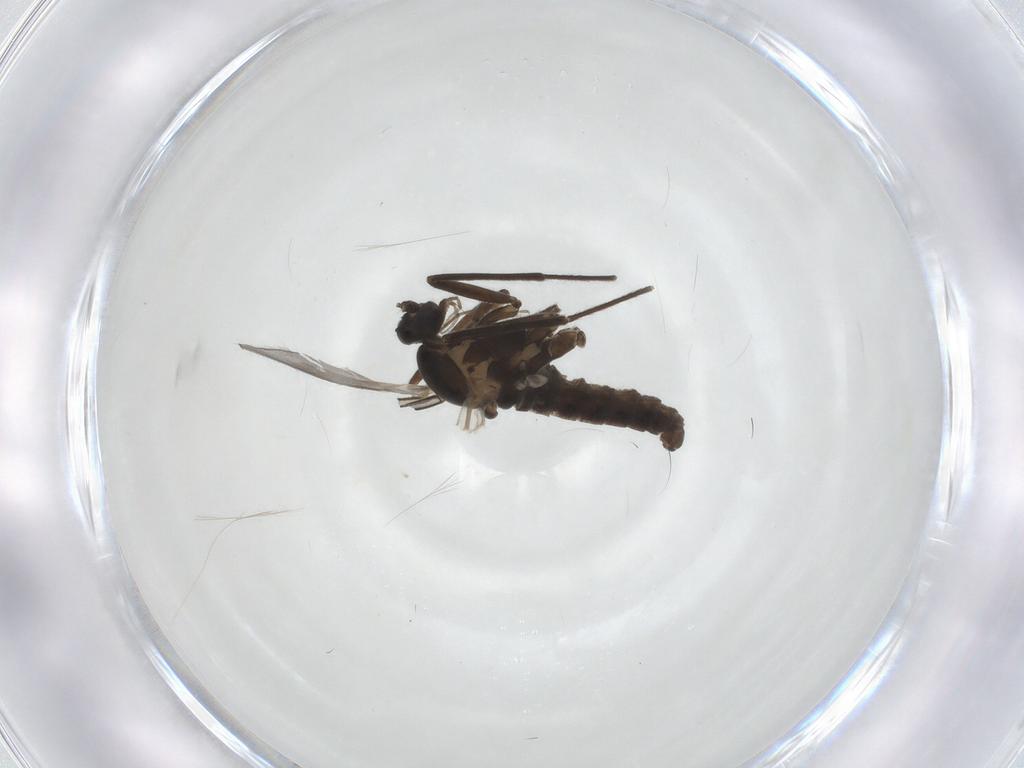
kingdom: Animalia
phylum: Arthropoda
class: Insecta
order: Diptera
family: Cecidomyiidae
